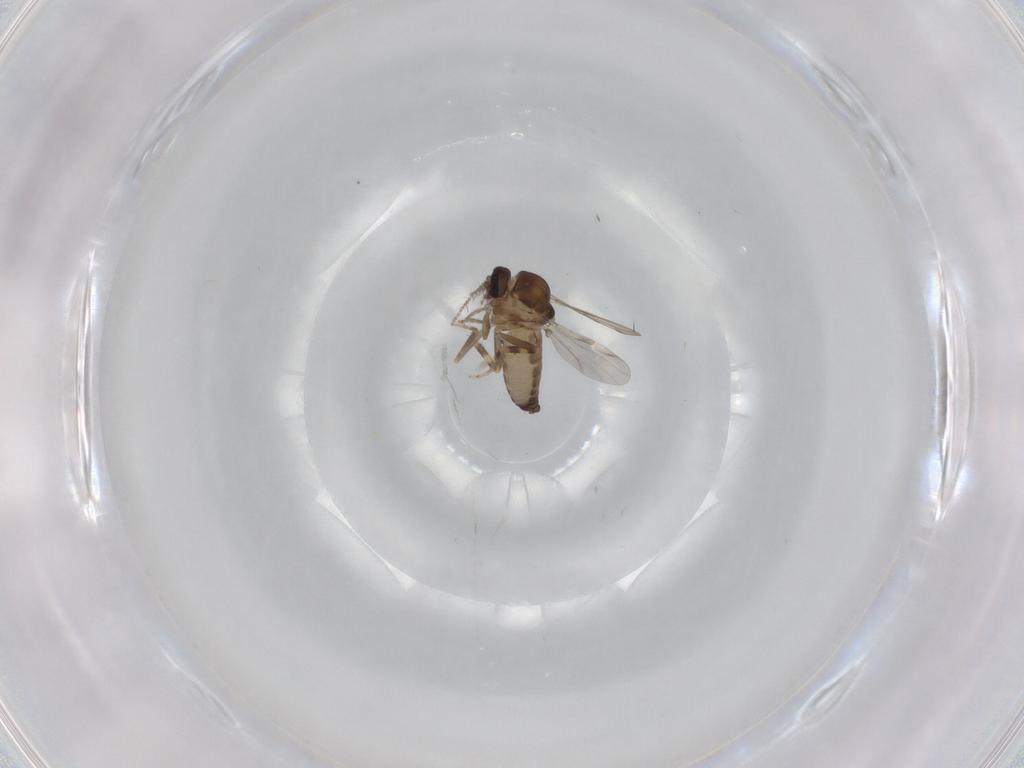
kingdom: Animalia
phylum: Arthropoda
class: Insecta
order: Diptera
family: Ceratopogonidae
